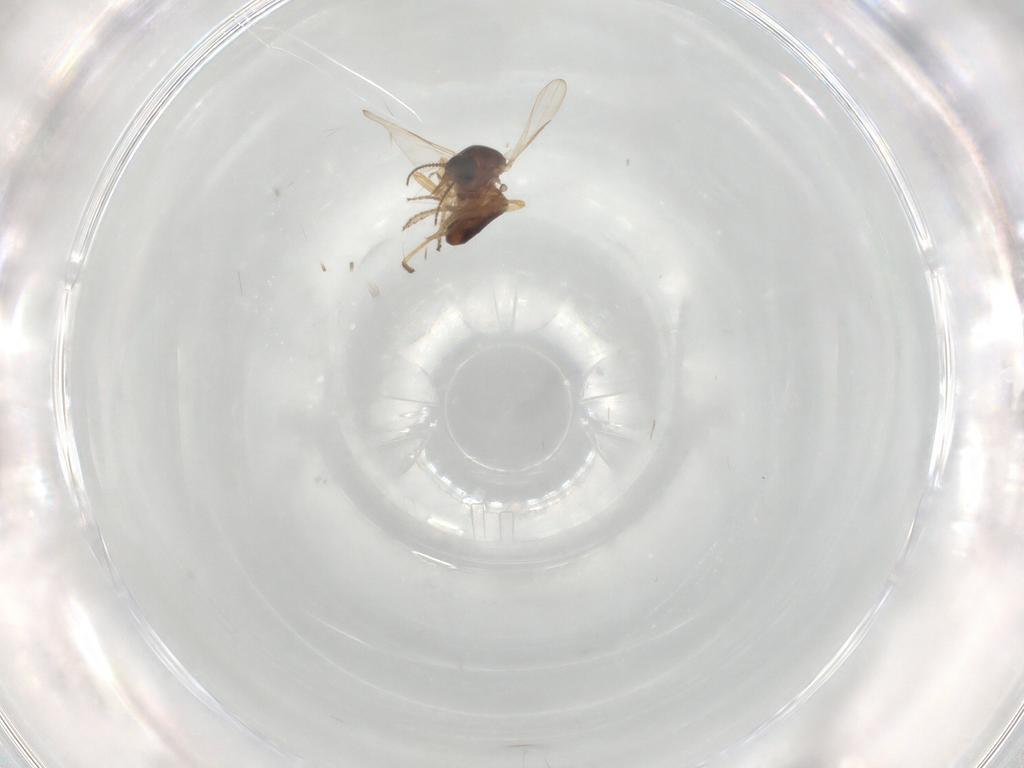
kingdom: Animalia
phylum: Arthropoda
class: Insecta
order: Diptera
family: Ceratopogonidae
